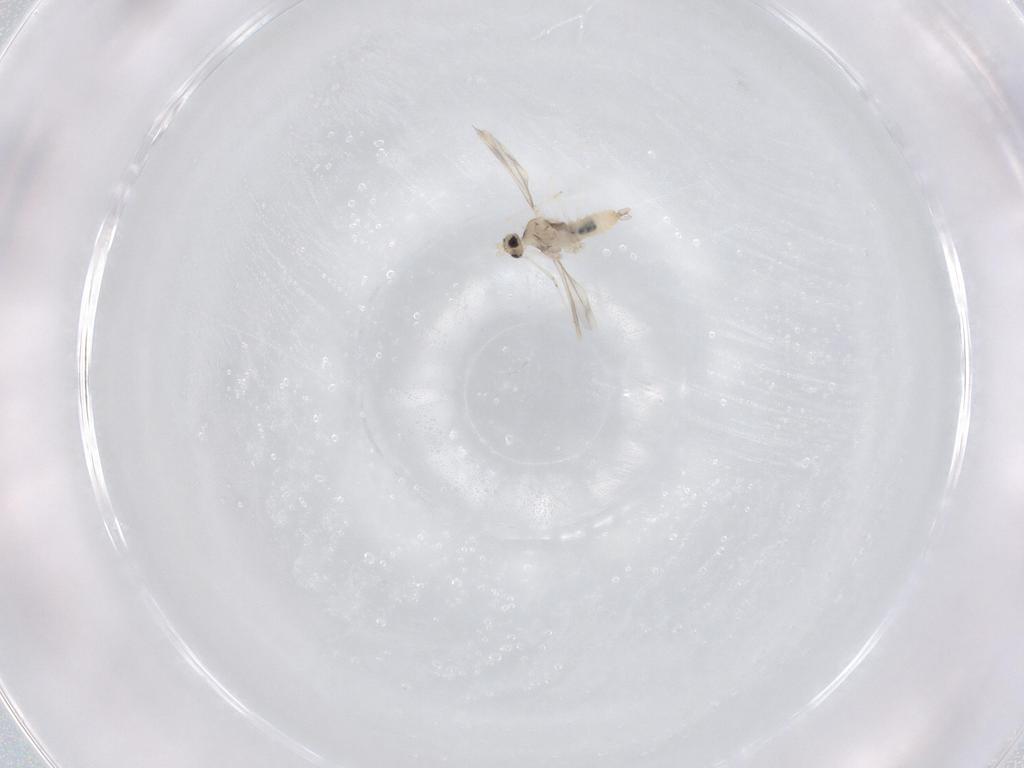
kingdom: Animalia
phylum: Arthropoda
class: Insecta
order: Diptera
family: Cecidomyiidae
